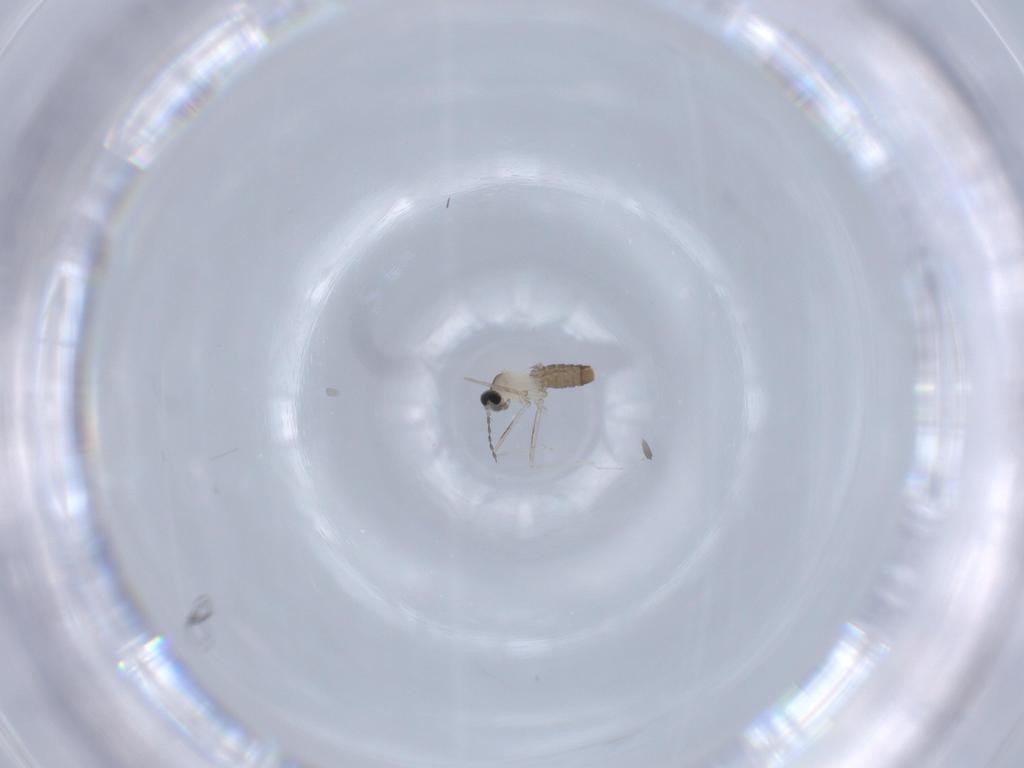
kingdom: Animalia
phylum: Arthropoda
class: Insecta
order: Diptera
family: Cecidomyiidae
